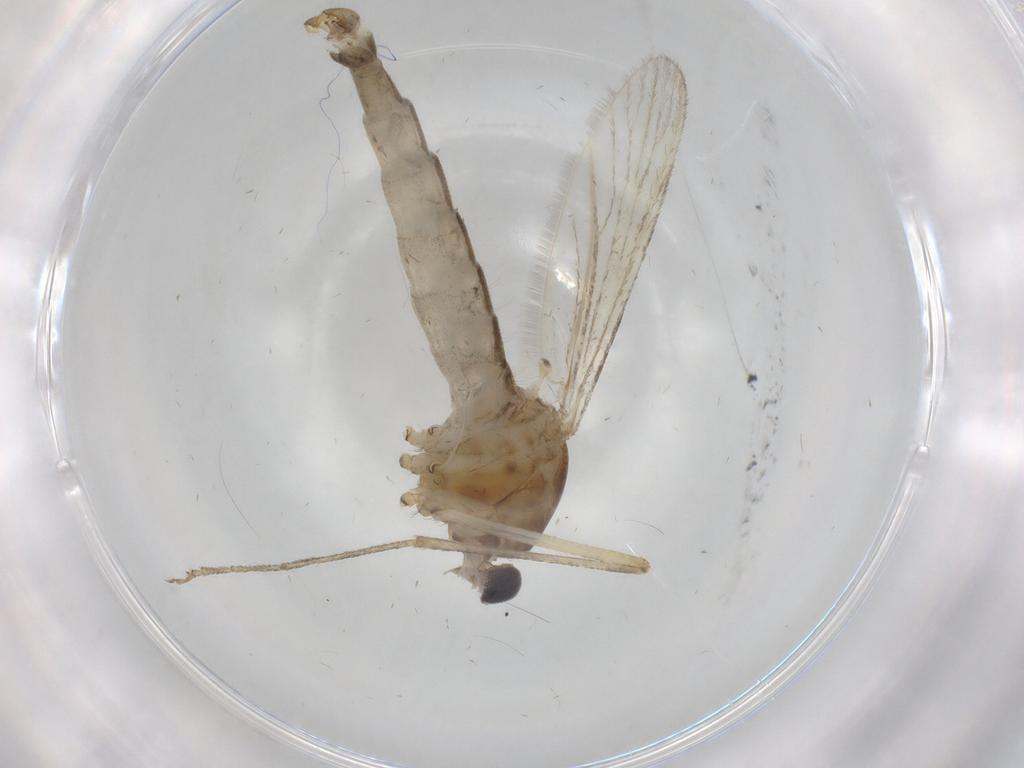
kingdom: Animalia
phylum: Arthropoda
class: Insecta
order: Diptera
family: Culicidae
